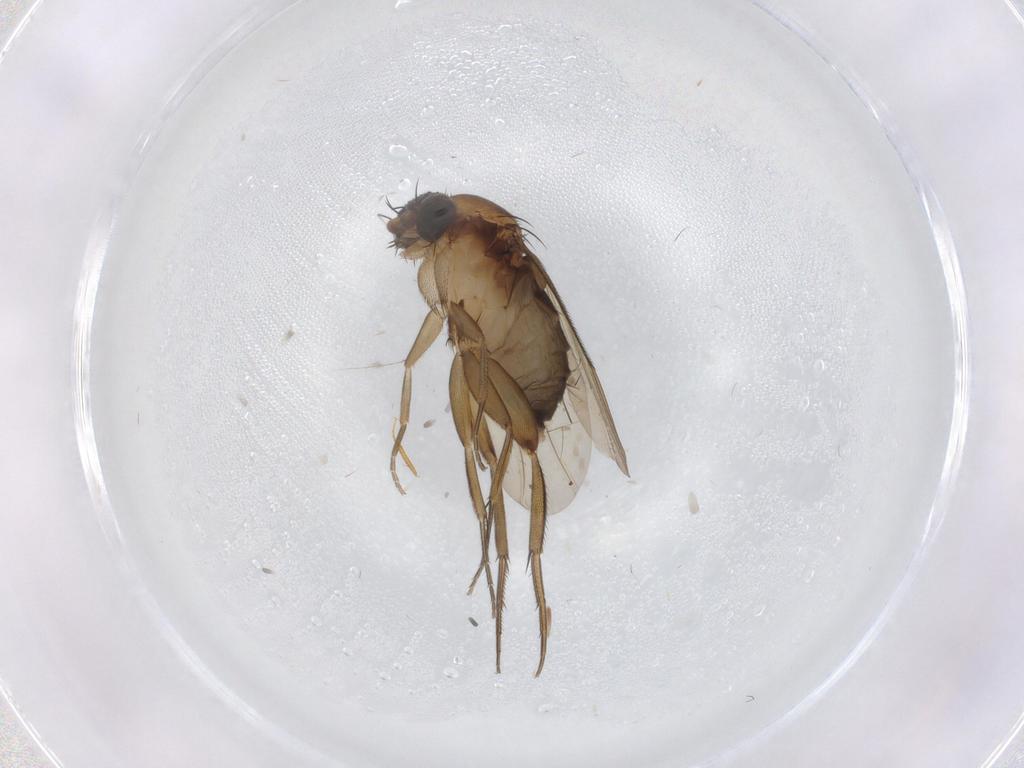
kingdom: Animalia
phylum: Arthropoda
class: Insecta
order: Diptera
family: Phoridae
